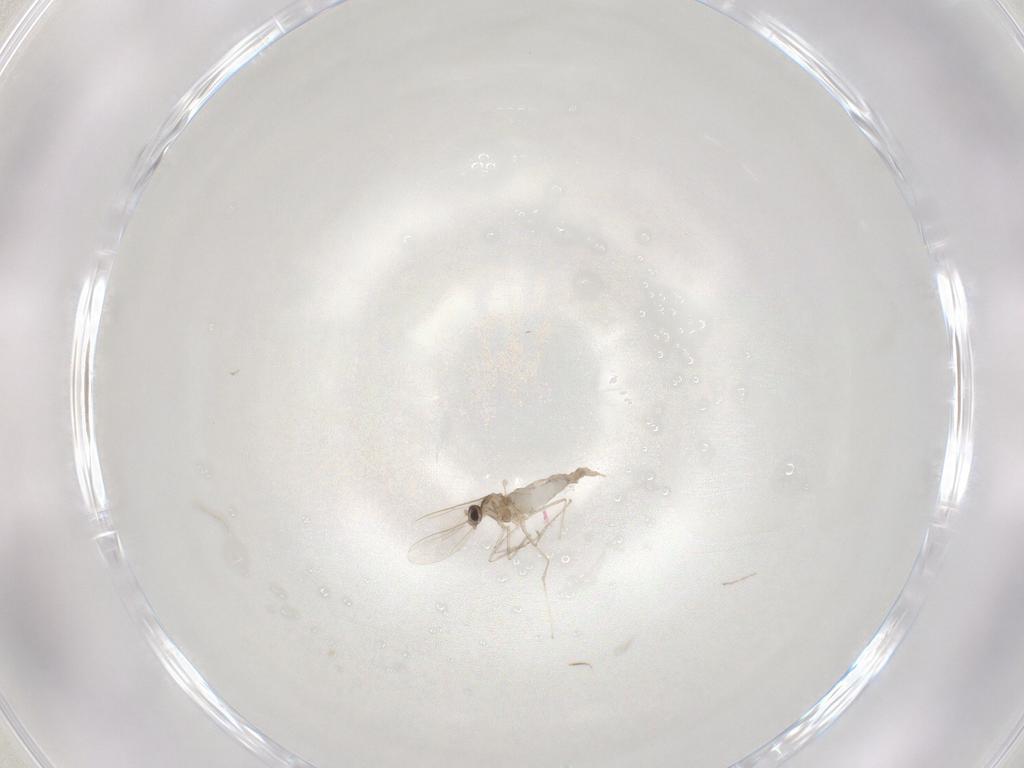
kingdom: Animalia
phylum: Arthropoda
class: Insecta
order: Diptera
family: Cecidomyiidae
